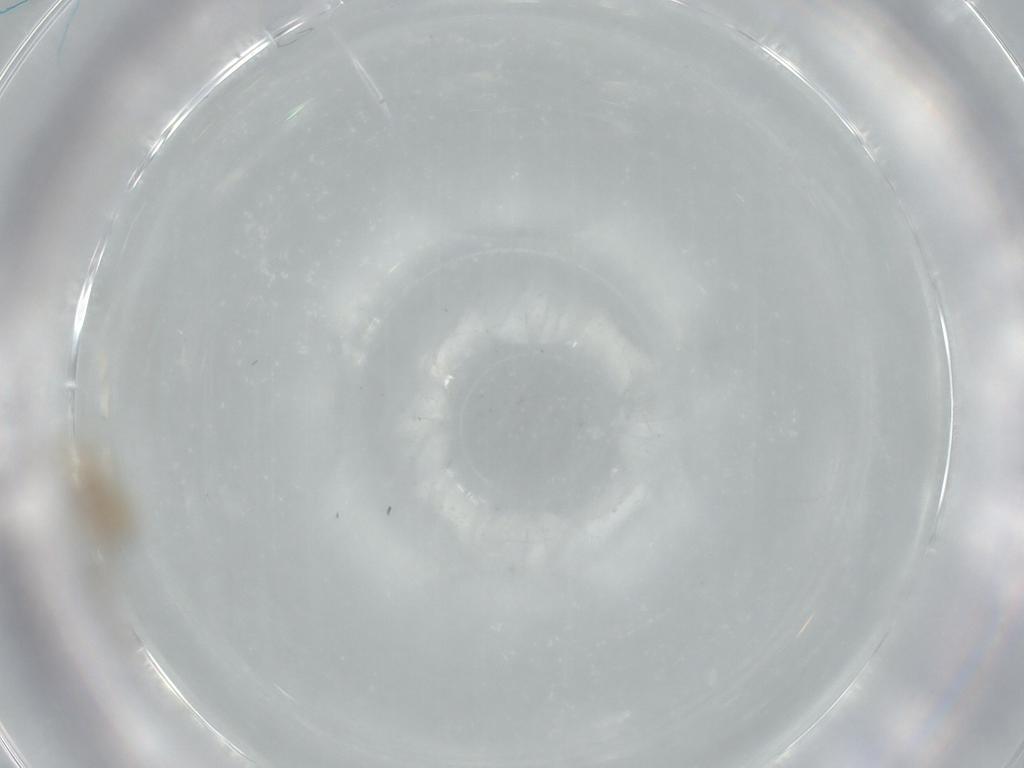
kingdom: Animalia
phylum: Arthropoda
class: Insecta
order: Diptera
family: Cecidomyiidae
